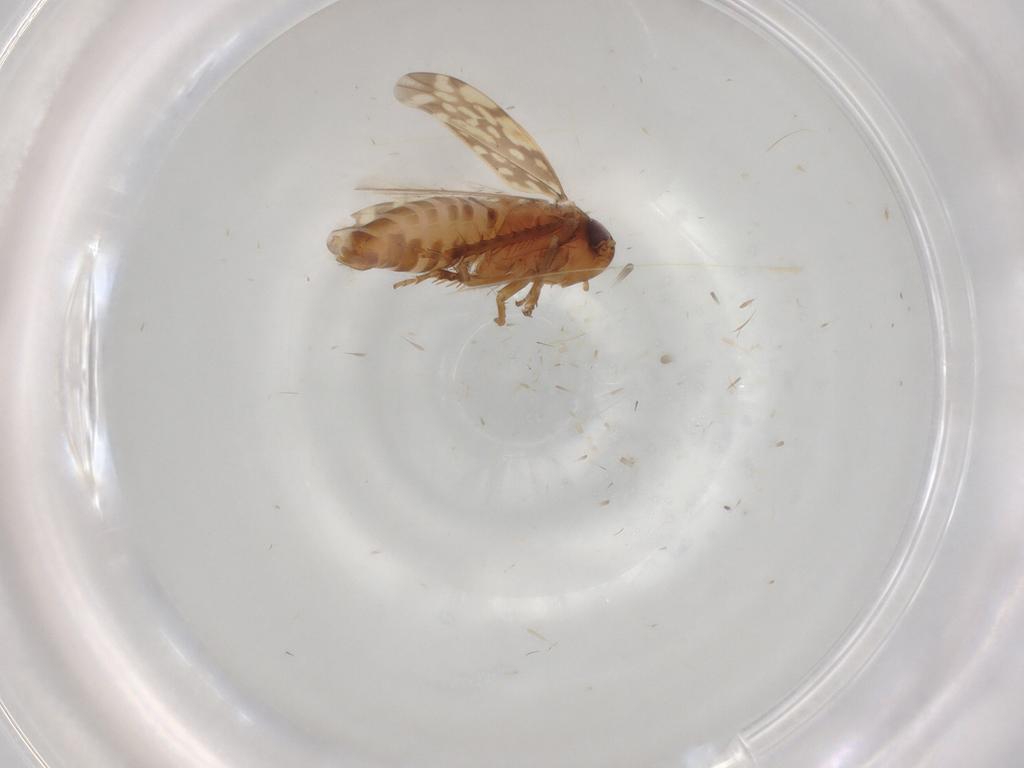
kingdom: Animalia
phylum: Arthropoda
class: Insecta
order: Hemiptera
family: Cicadellidae
